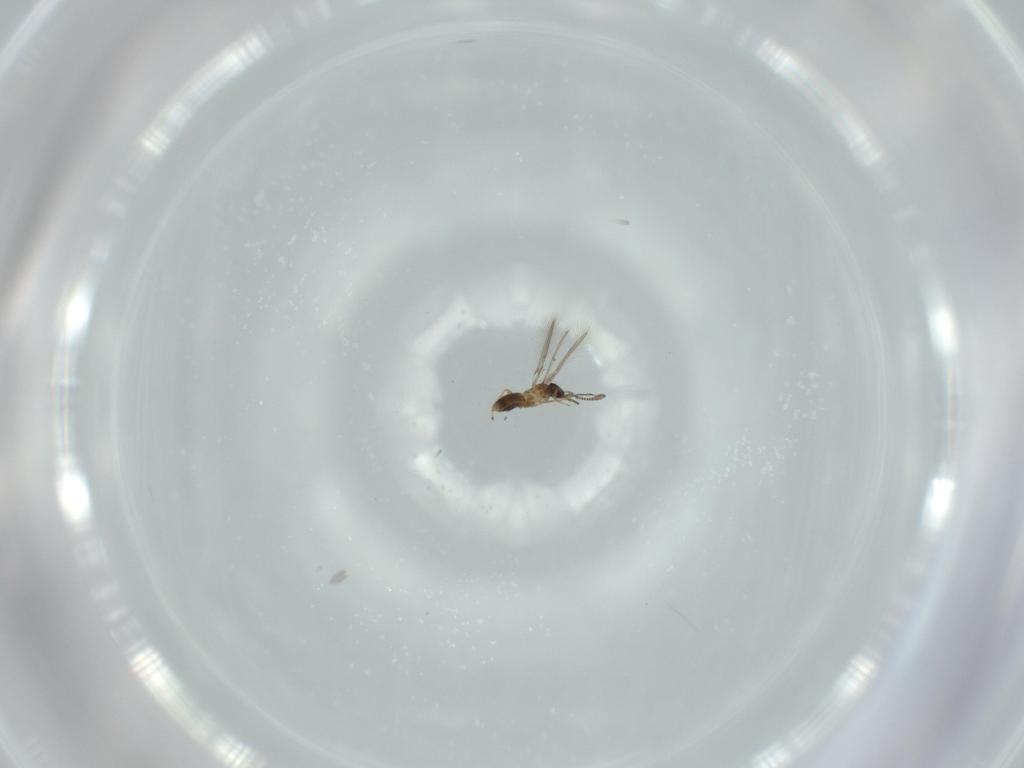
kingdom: Animalia
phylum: Arthropoda
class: Insecta
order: Hymenoptera
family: Mymaridae
